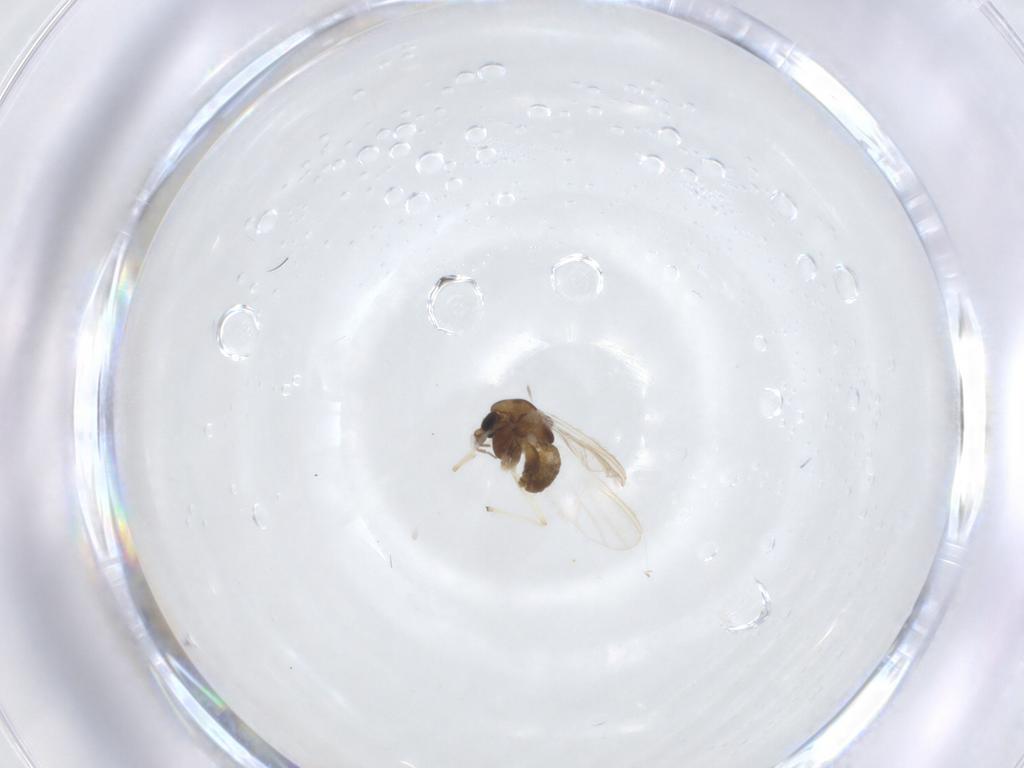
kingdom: Animalia
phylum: Arthropoda
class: Insecta
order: Diptera
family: Chironomidae
